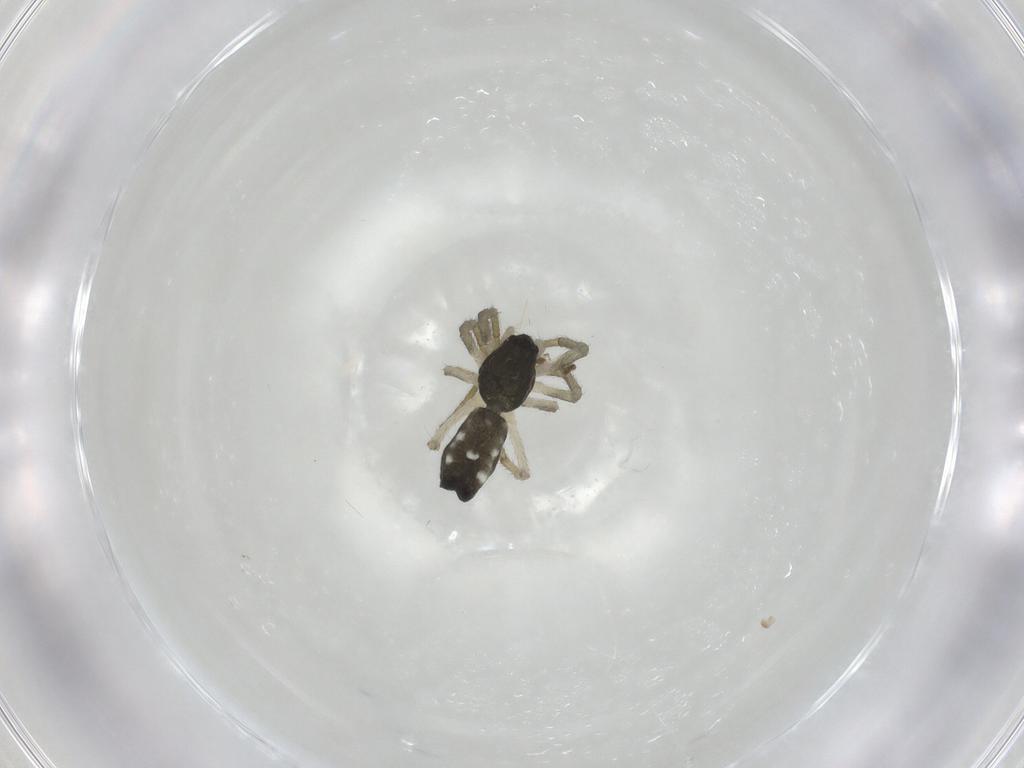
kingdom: Animalia
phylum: Arthropoda
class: Arachnida
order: Araneae
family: Araneidae
